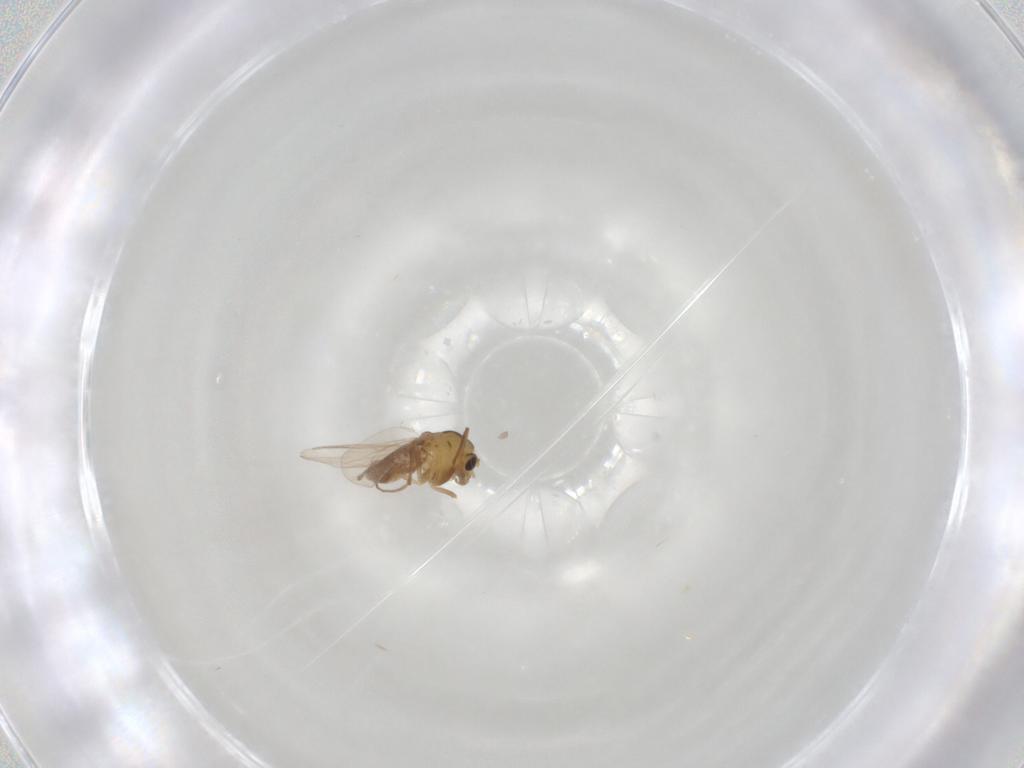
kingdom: Animalia
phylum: Arthropoda
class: Insecta
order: Diptera
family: Chironomidae
